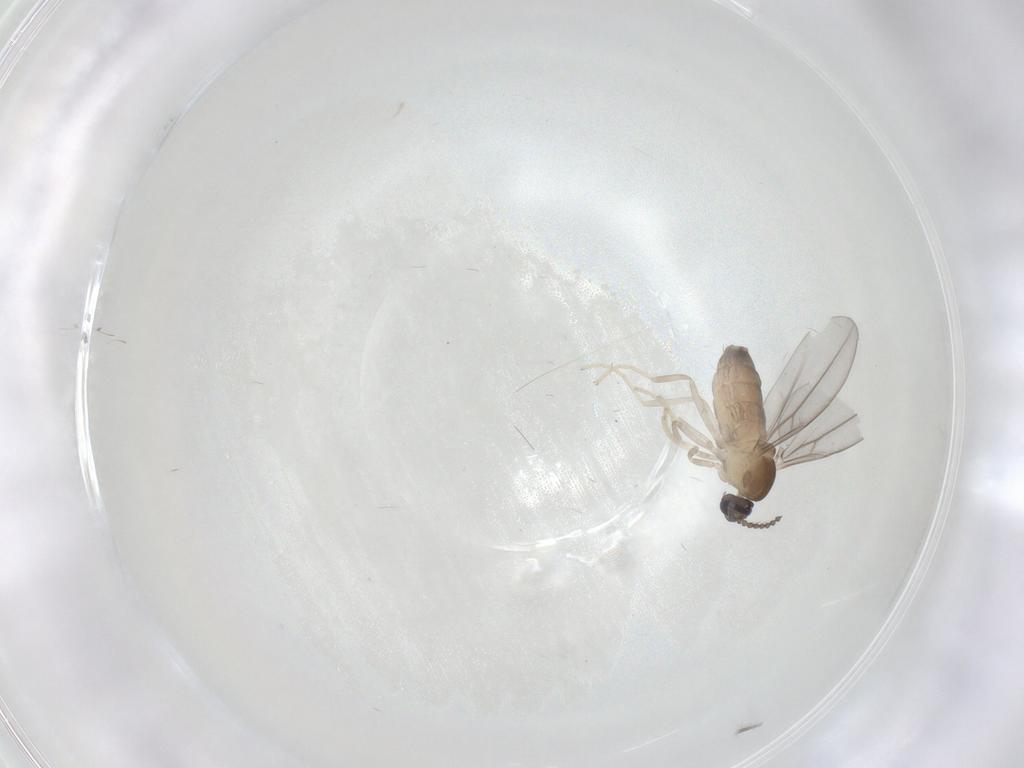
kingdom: Animalia
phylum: Arthropoda
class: Insecta
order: Diptera
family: Cecidomyiidae
